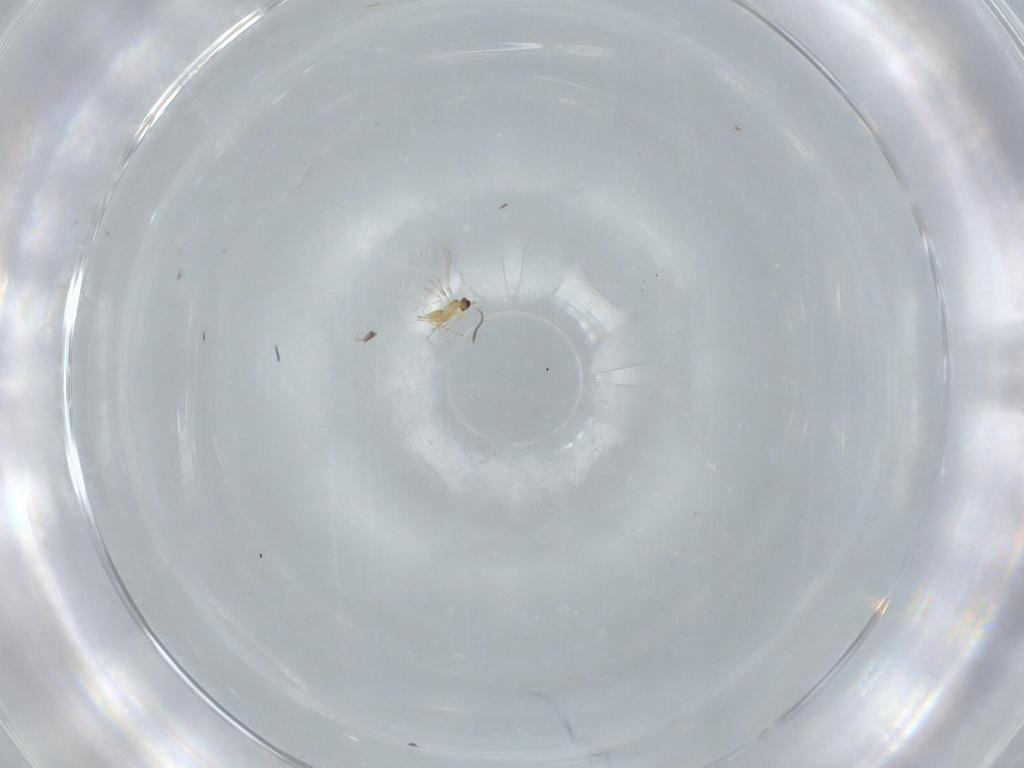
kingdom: Animalia
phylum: Arthropoda
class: Insecta
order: Hymenoptera
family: Mymaridae
